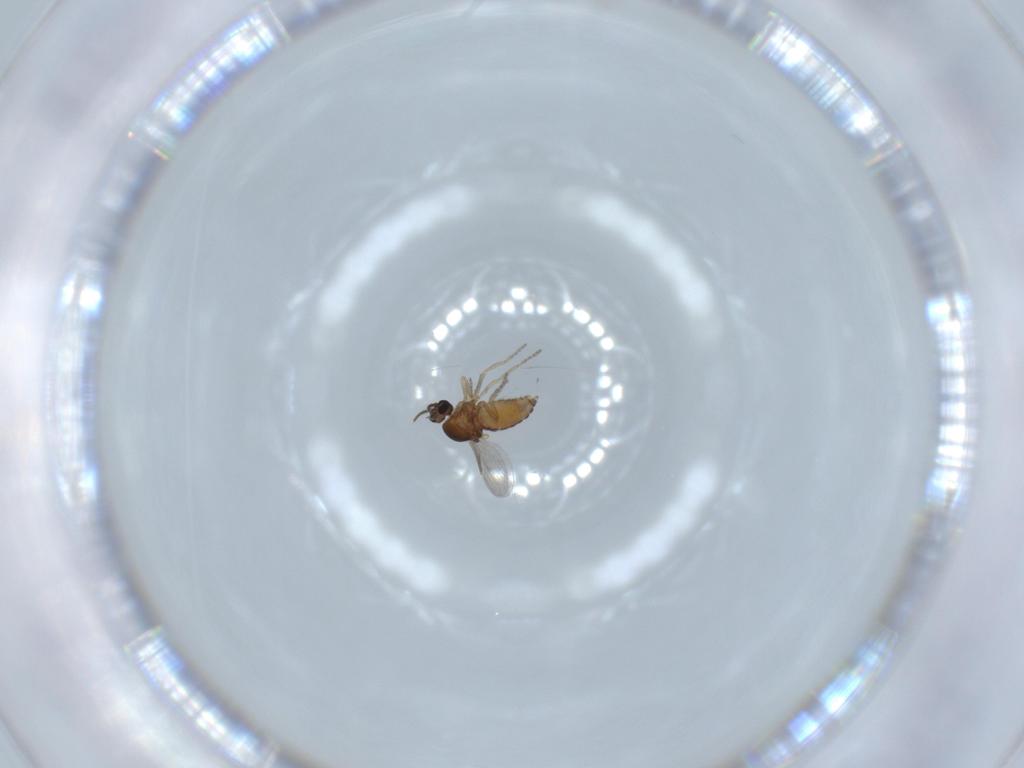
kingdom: Animalia
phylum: Arthropoda
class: Insecta
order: Diptera
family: Ceratopogonidae
